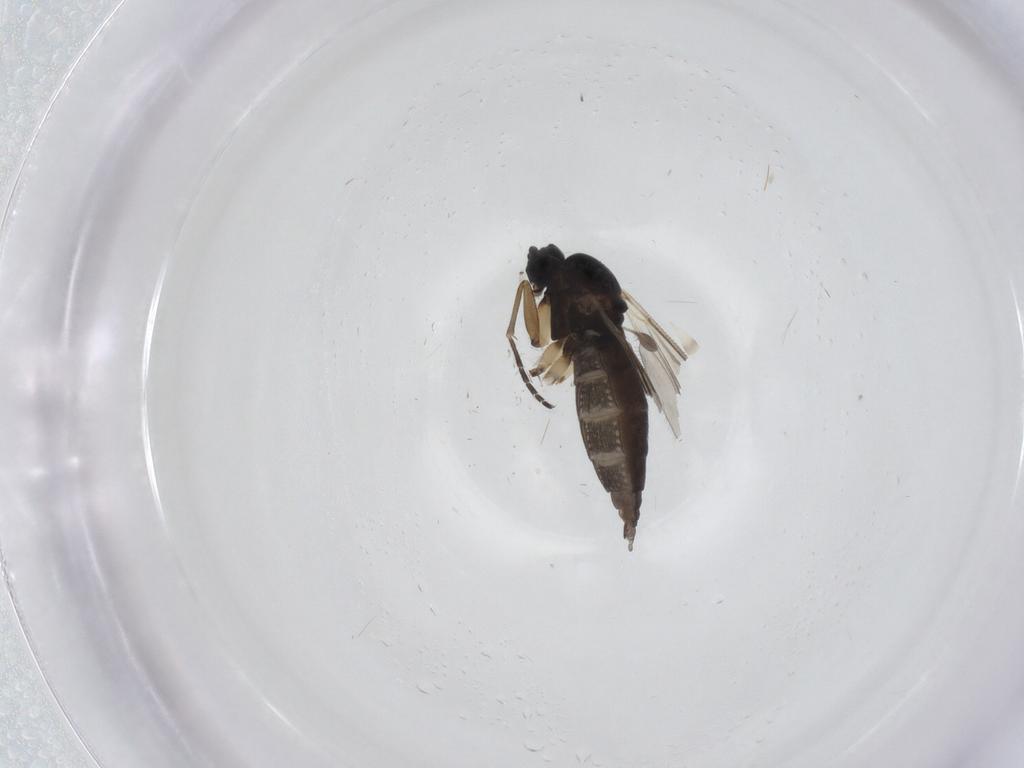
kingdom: Animalia
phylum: Arthropoda
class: Insecta
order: Diptera
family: Sciaridae
